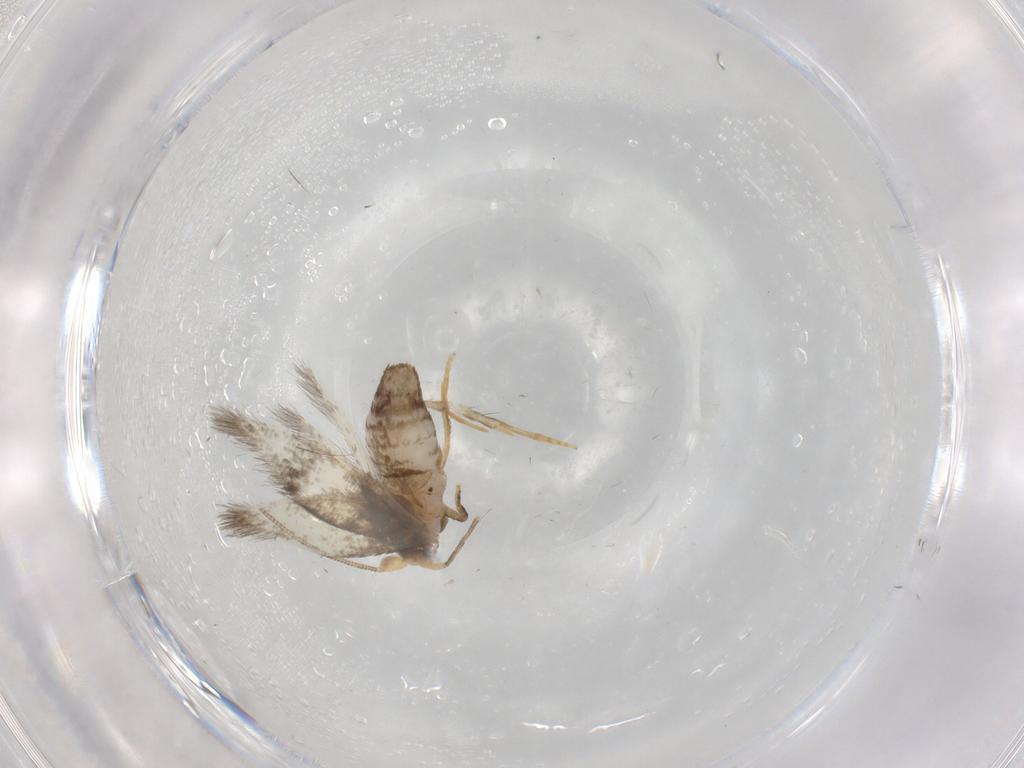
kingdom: Animalia
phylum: Arthropoda
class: Insecta
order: Lepidoptera
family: Nepticulidae
